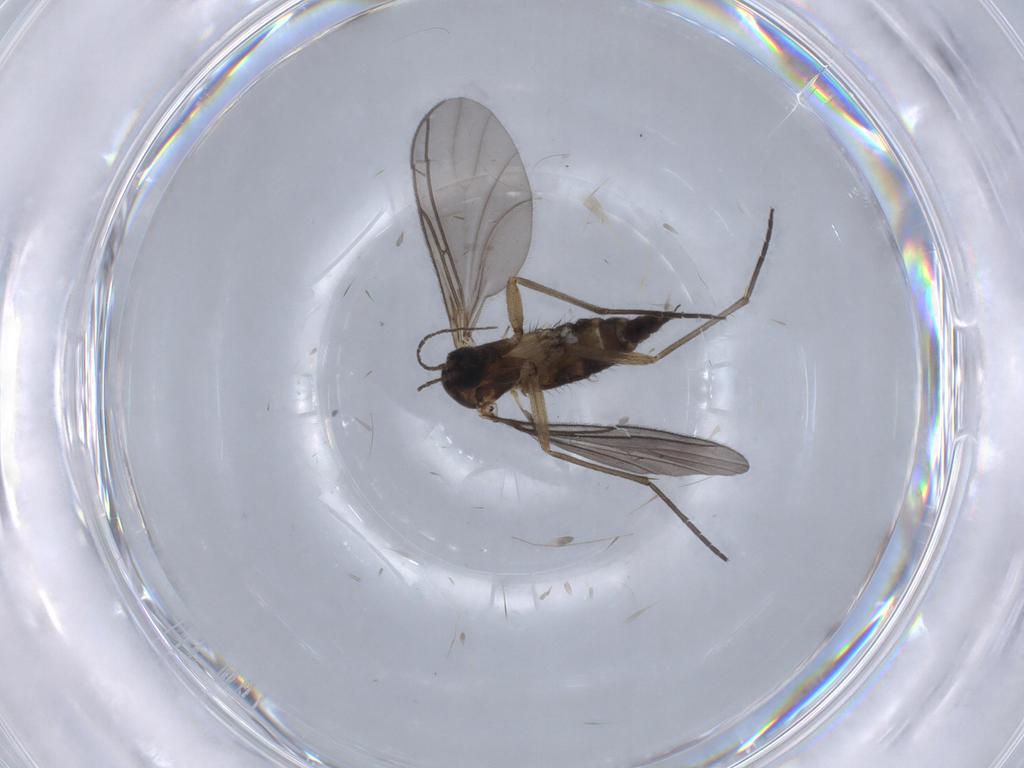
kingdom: Animalia
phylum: Arthropoda
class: Insecta
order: Diptera
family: Sciaridae
